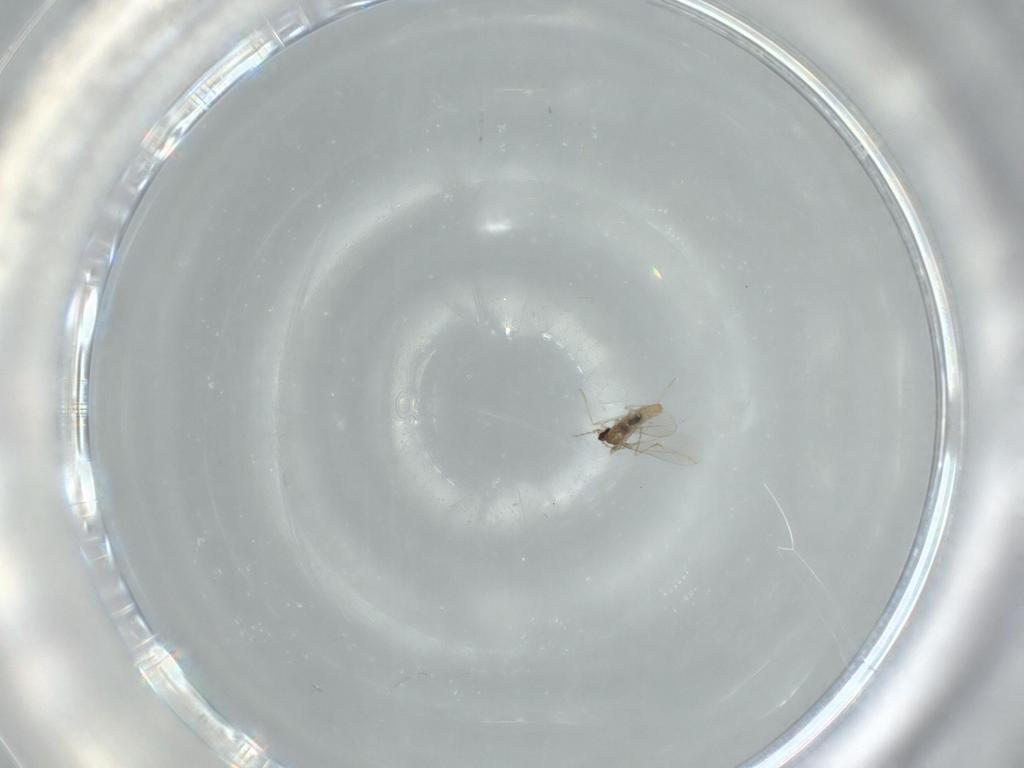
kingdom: Animalia
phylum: Arthropoda
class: Insecta
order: Diptera
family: Cecidomyiidae
